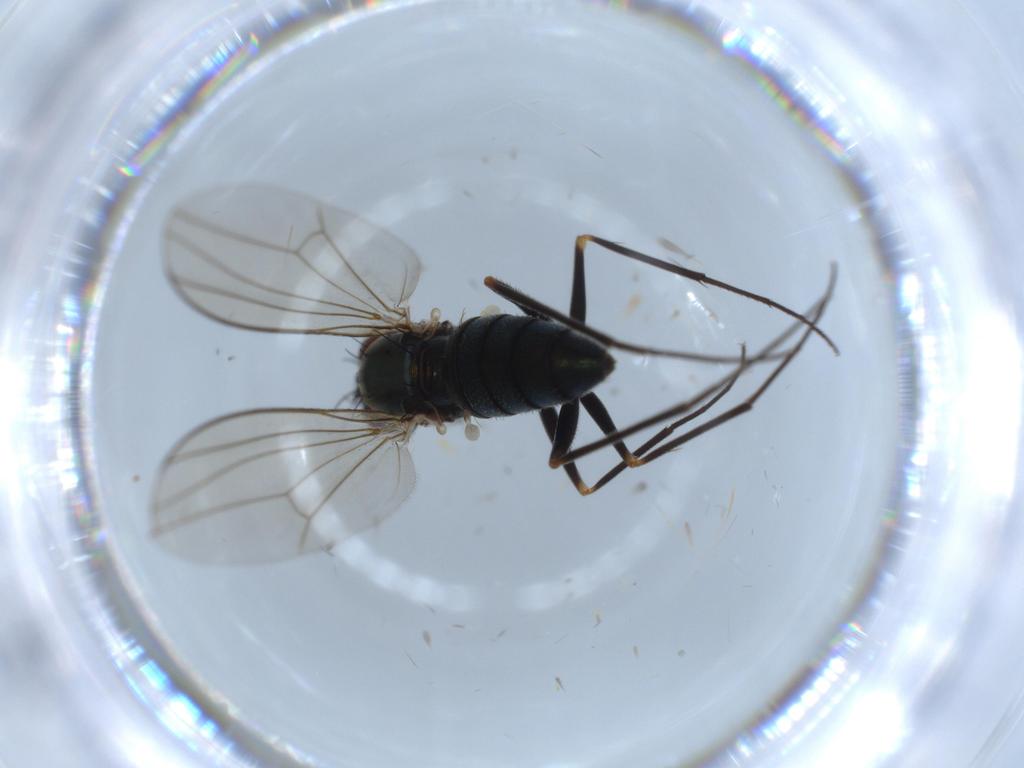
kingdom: Animalia
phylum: Arthropoda
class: Insecta
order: Diptera
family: Dolichopodidae
